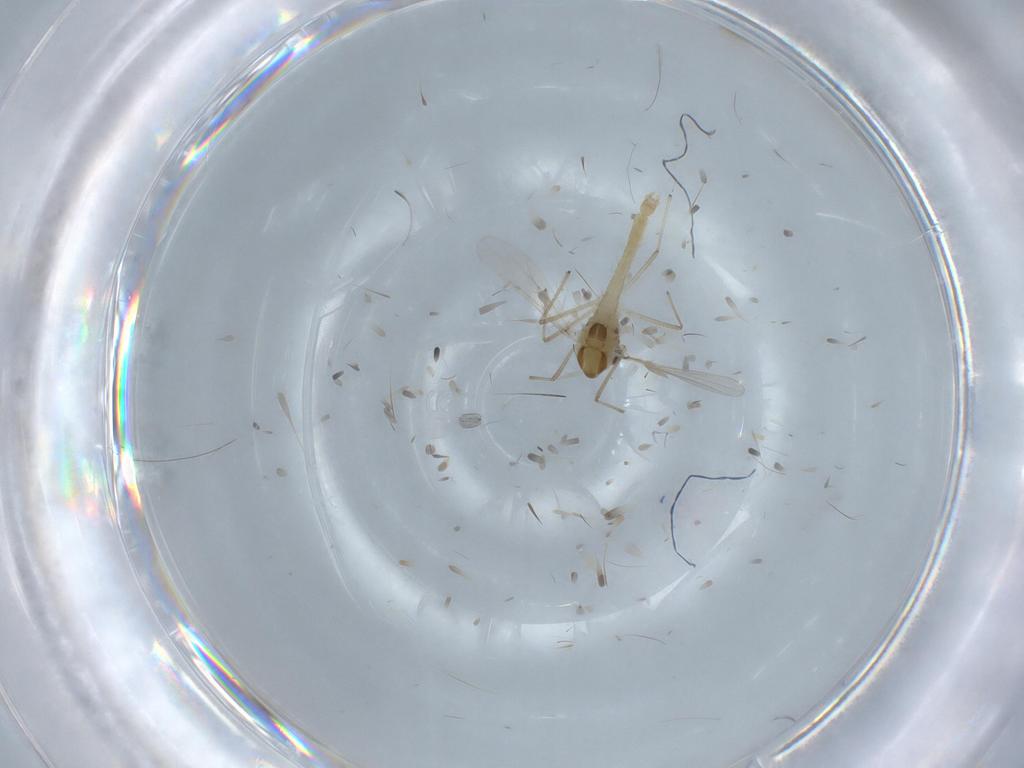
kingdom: Animalia
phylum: Arthropoda
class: Insecta
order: Diptera
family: Chironomidae
